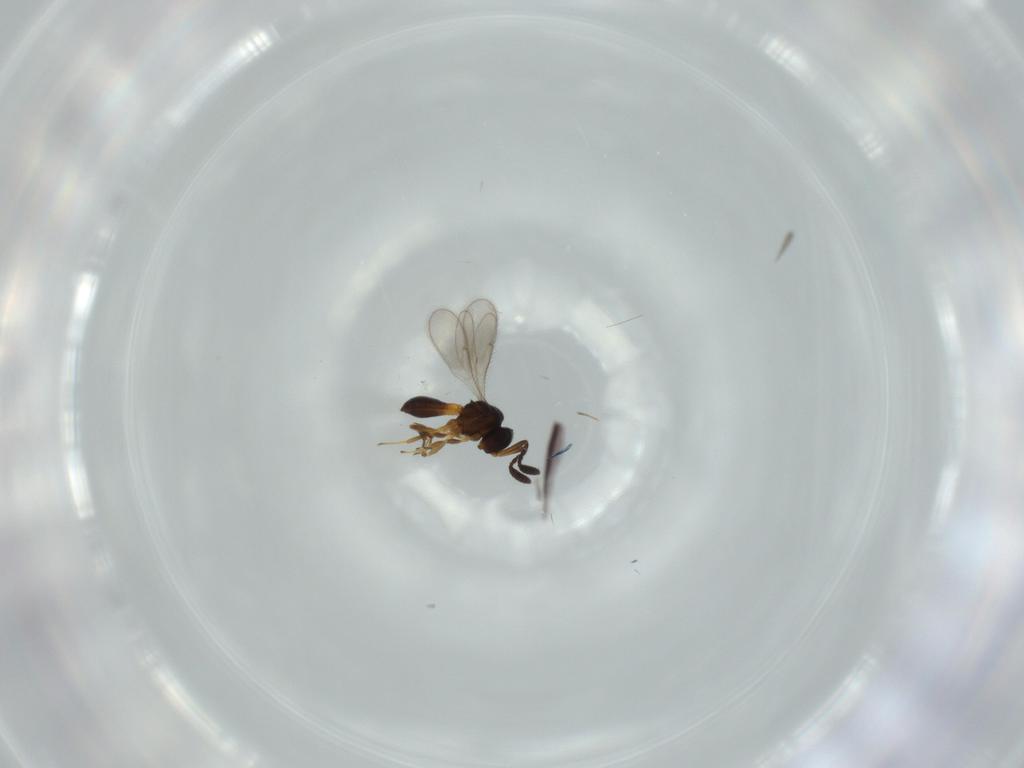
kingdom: Animalia
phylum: Arthropoda
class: Insecta
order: Hymenoptera
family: Scelionidae
